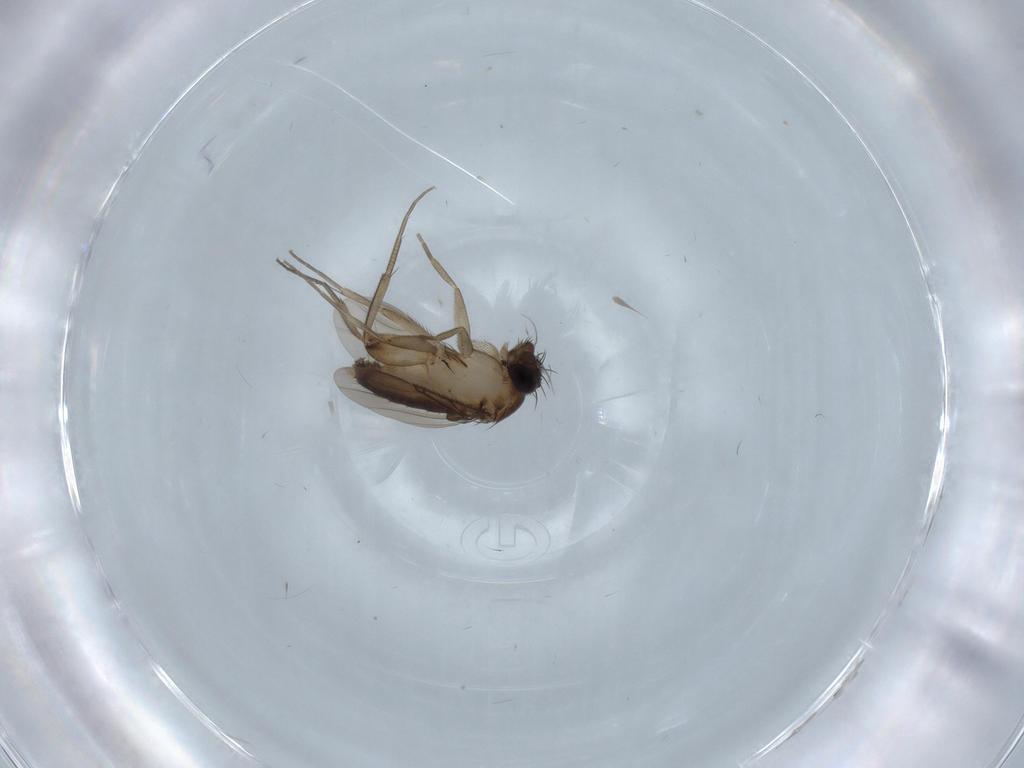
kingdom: Animalia
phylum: Arthropoda
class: Insecta
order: Diptera
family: Phoridae
